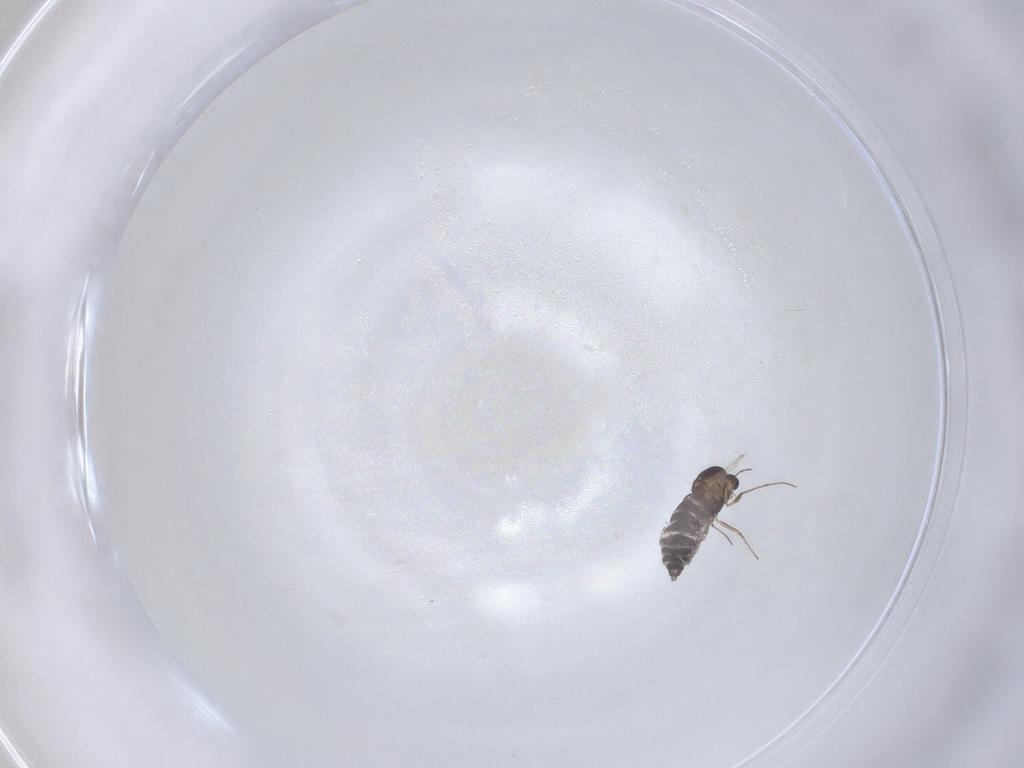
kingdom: Animalia
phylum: Arthropoda
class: Insecta
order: Diptera
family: Chironomidae
